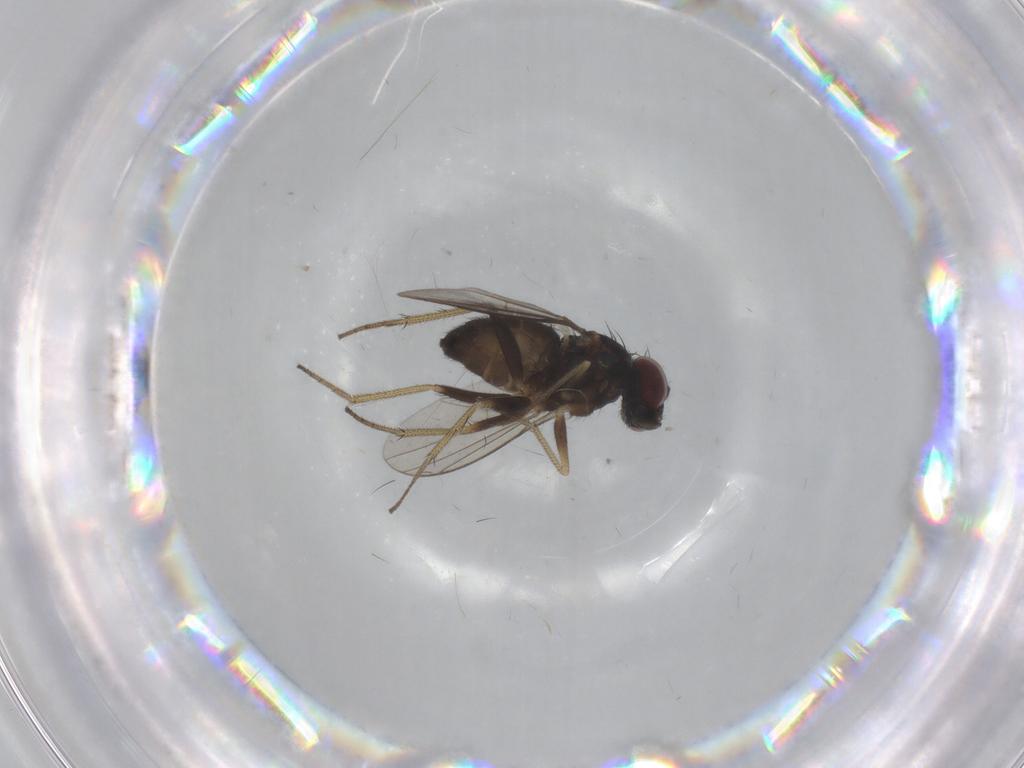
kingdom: Animalia
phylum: Arthropoda
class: Insecta
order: Diptera
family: Dolichopodidae
